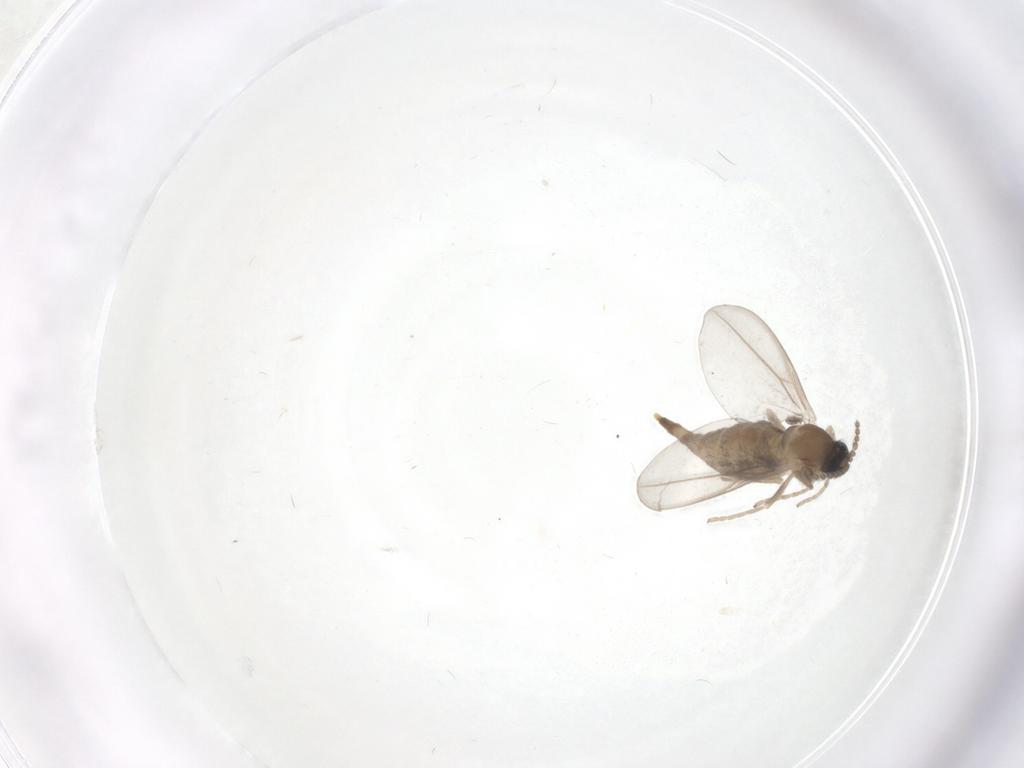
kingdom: Animalia
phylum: Arthropoda
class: Insecta
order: Diptera
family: Cecidomyiidae
